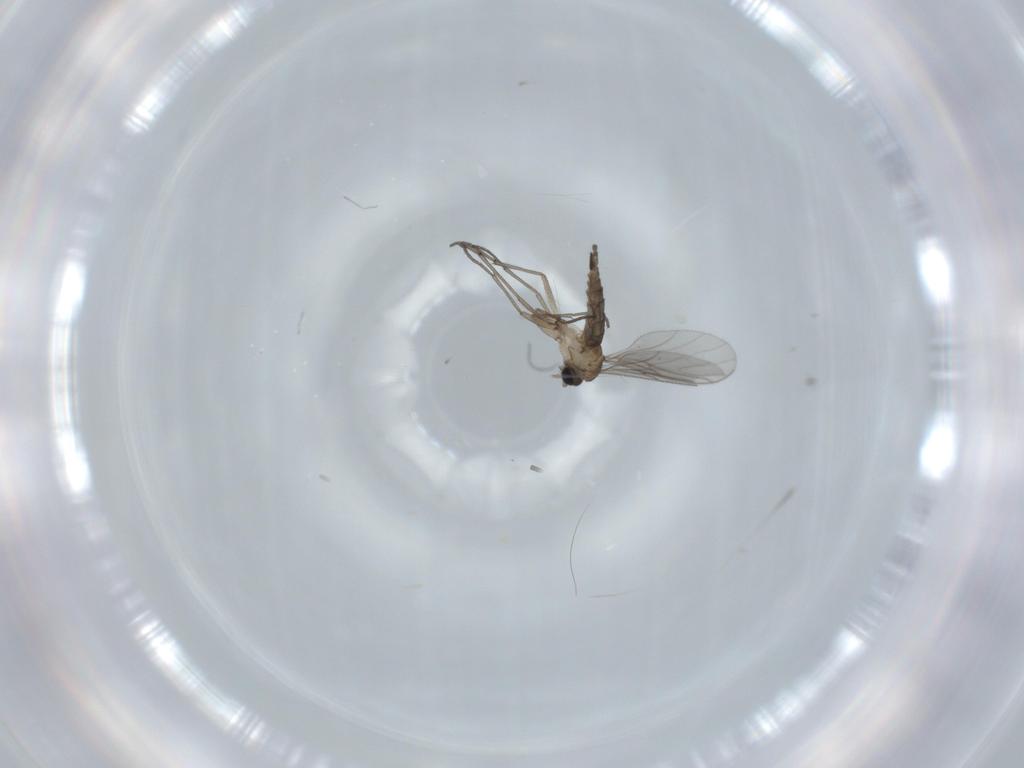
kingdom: Animalia
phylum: Arthropoda
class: Insecta
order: Diptera
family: Sciaridae
